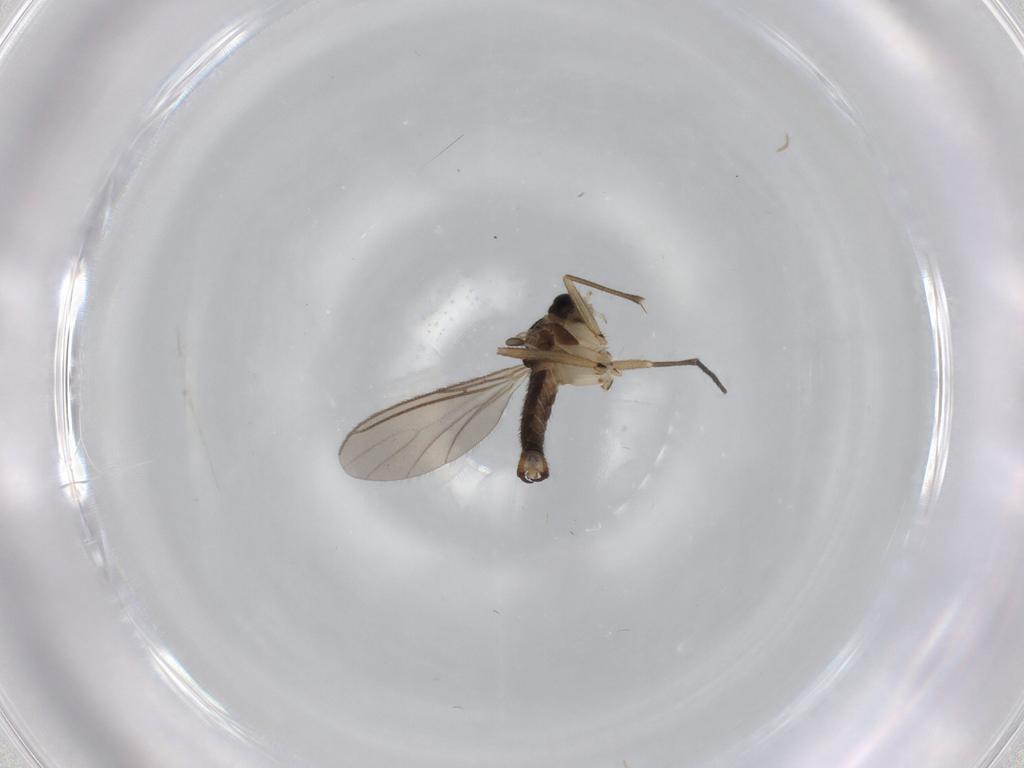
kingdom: Animalia
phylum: Arthropoda
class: Insecta
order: Diptera
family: Sciaridae
